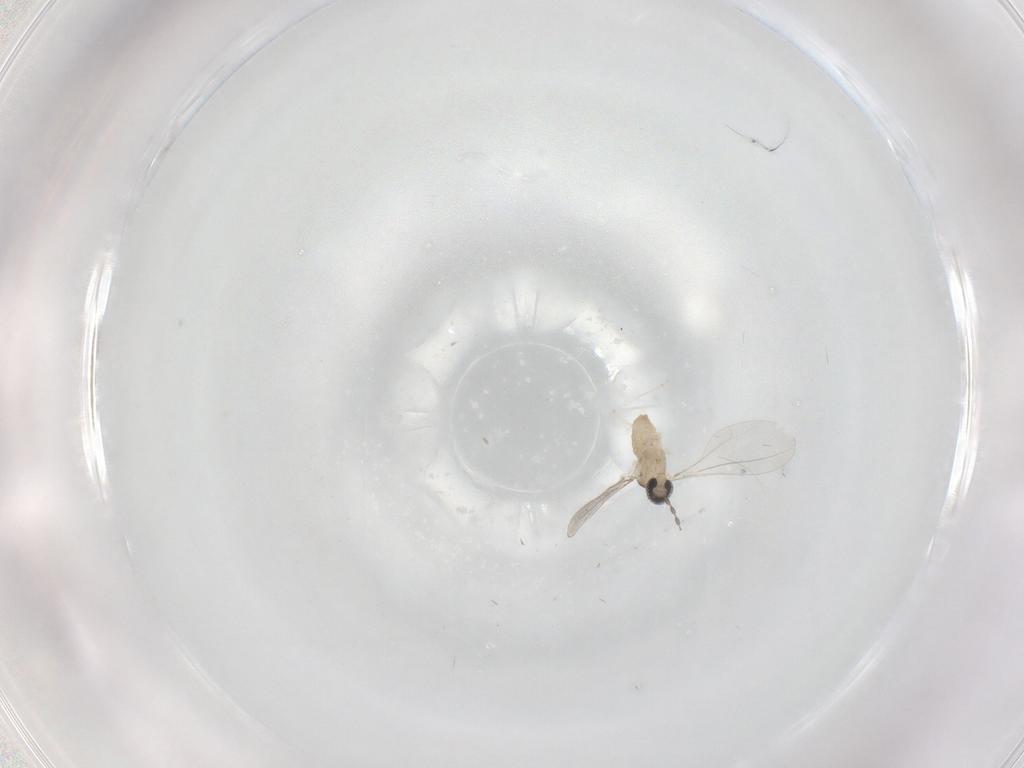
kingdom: Animalia
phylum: Arthropoda
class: Insecta
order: Diptera
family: Cecidomyiidae
